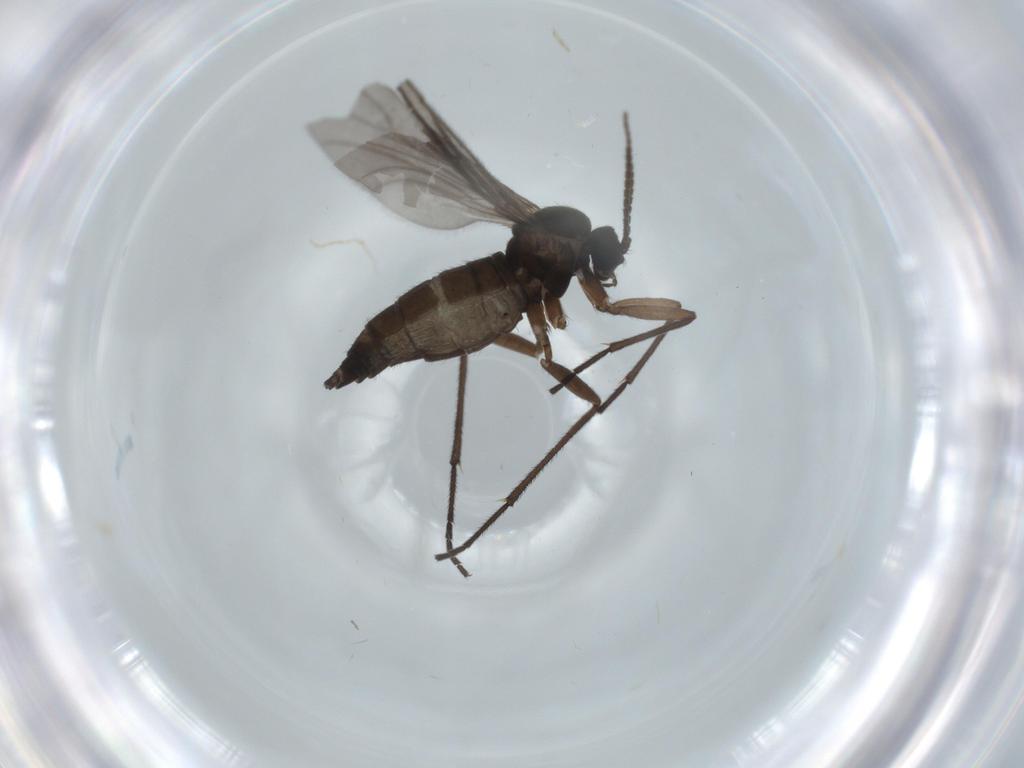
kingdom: Animalia
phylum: Arthropoda
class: Insecta
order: Diptera
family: Sciaridae
